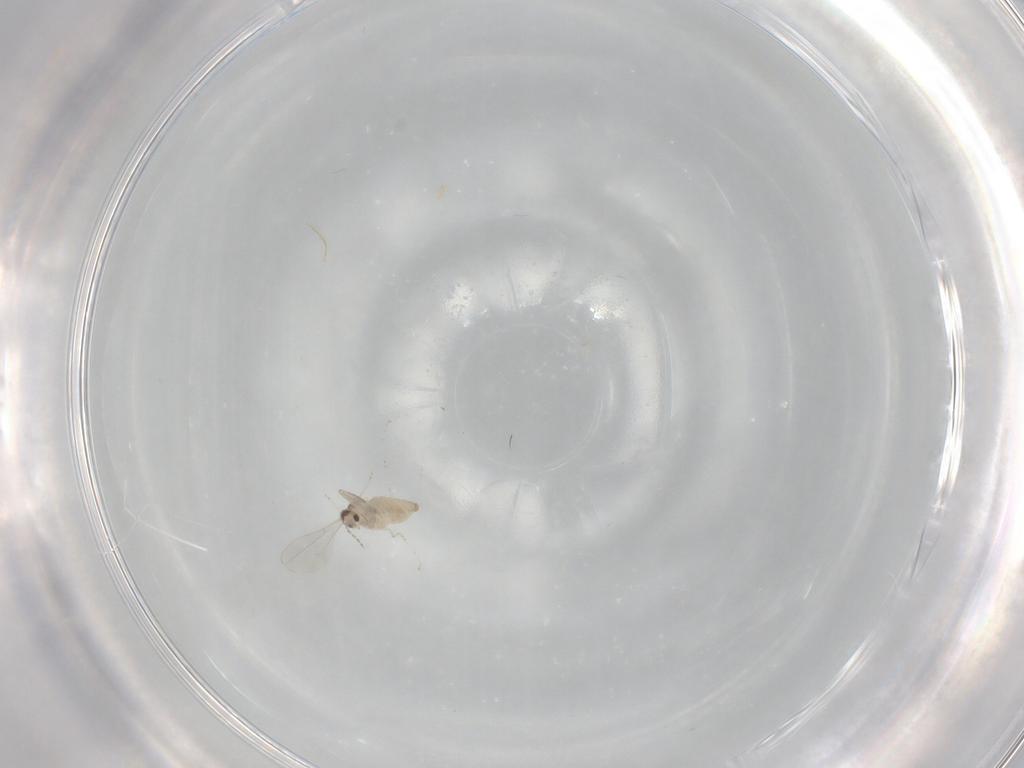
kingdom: Animalia
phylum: Arthropoda
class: Insecta
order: Diptera
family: Cecidomyiidae
